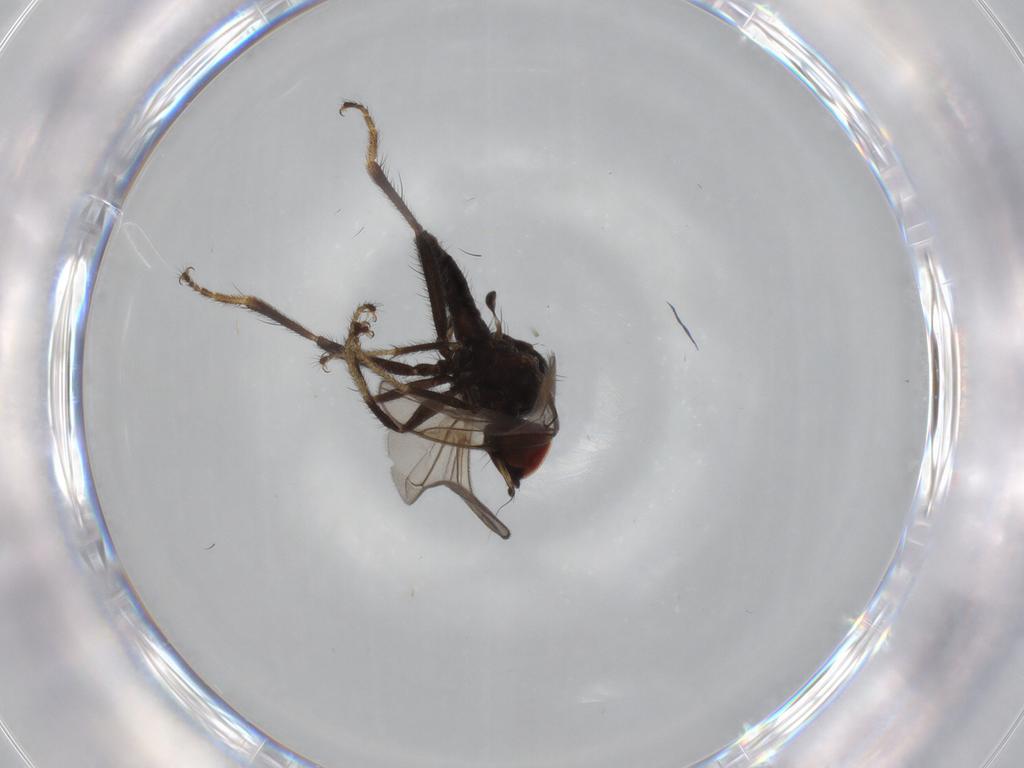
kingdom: Animalia
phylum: Arthropoda
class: Insecta
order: Diptera
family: Hybotidae
